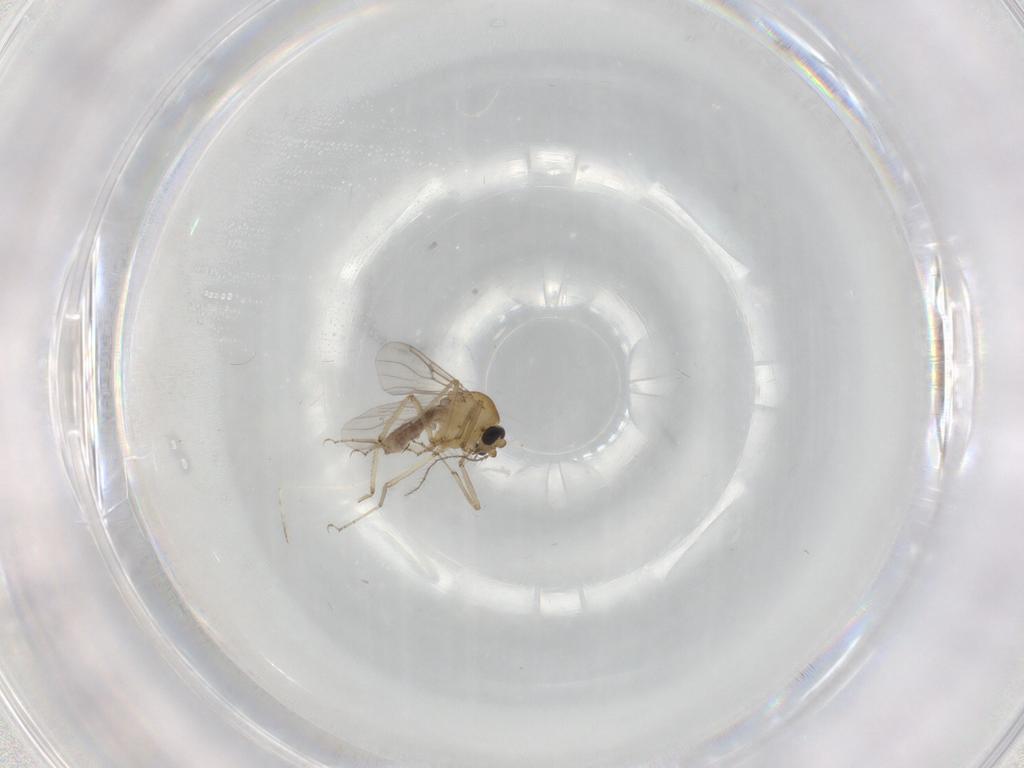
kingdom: Animalia
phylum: Arthropoda
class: Insecta
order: Diptera
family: Ceratopogonidae
